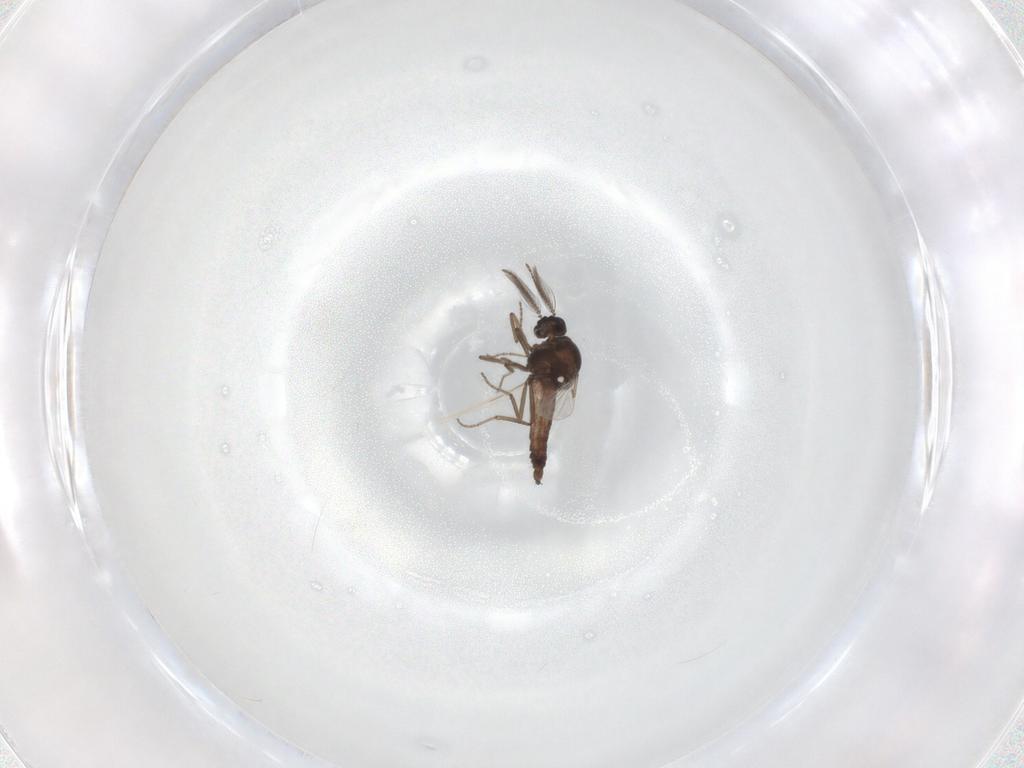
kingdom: Animalia
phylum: Arthropoda
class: Insecta
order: Diptera
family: Ceratopogonidae
